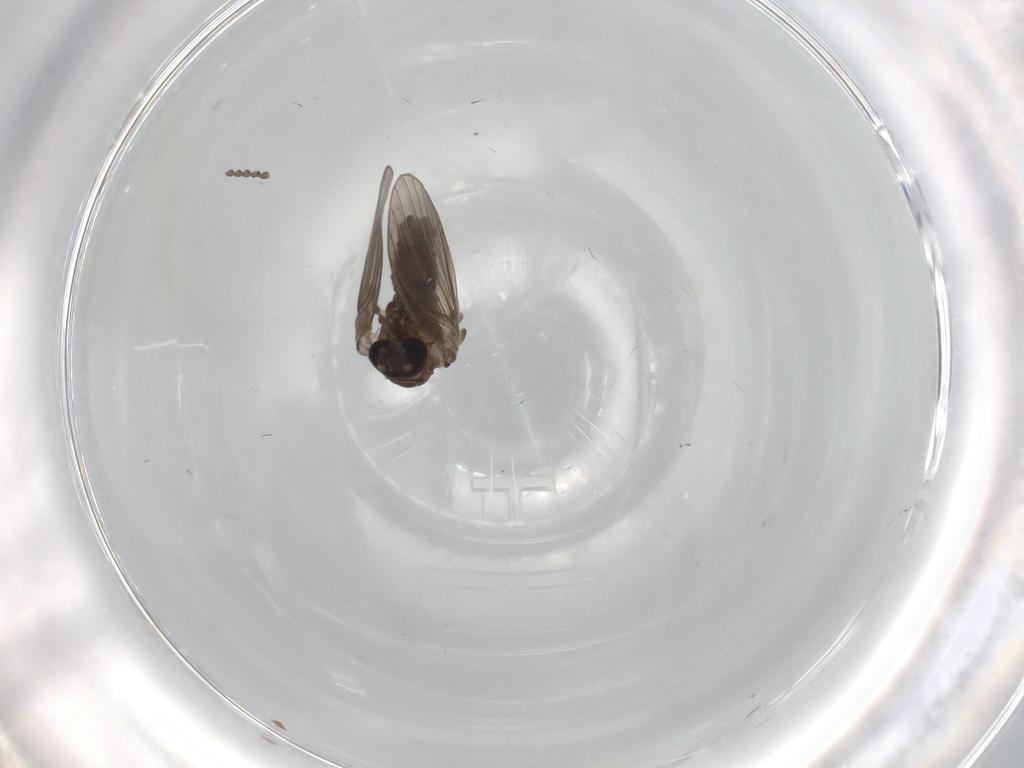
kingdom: Animalia
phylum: Arthropoda
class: Insecta
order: Diptera
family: Psychodidae
